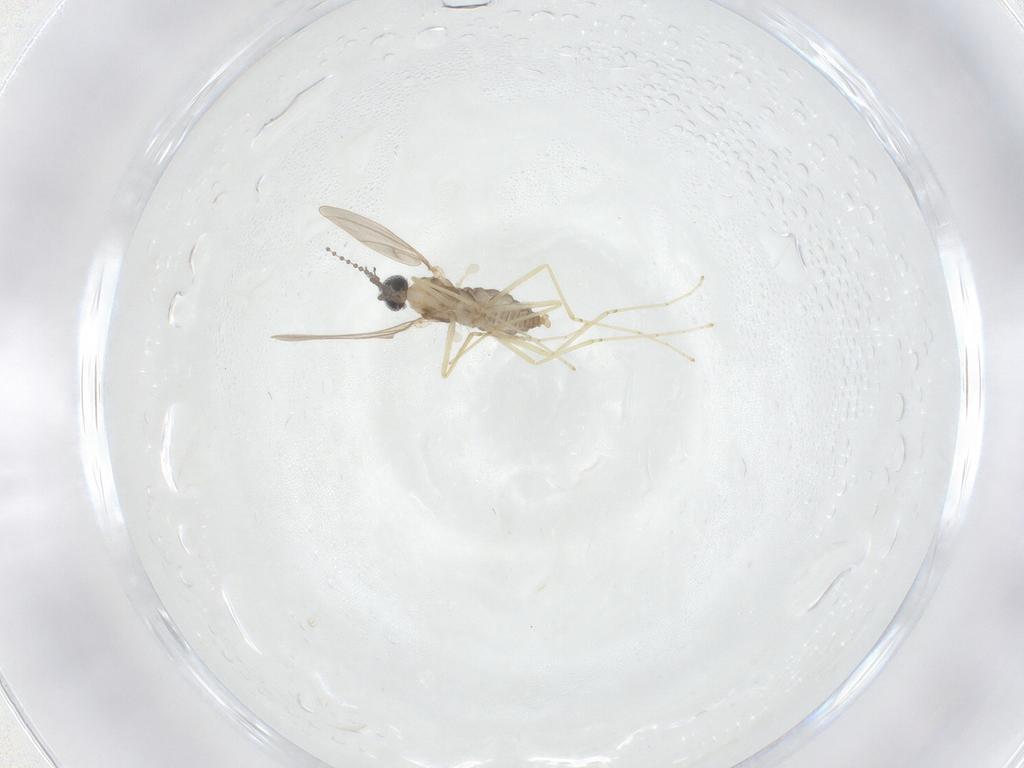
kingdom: Animalia
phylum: Arthropoda
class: Insecta
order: Diptera
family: Cecidomyiidae
